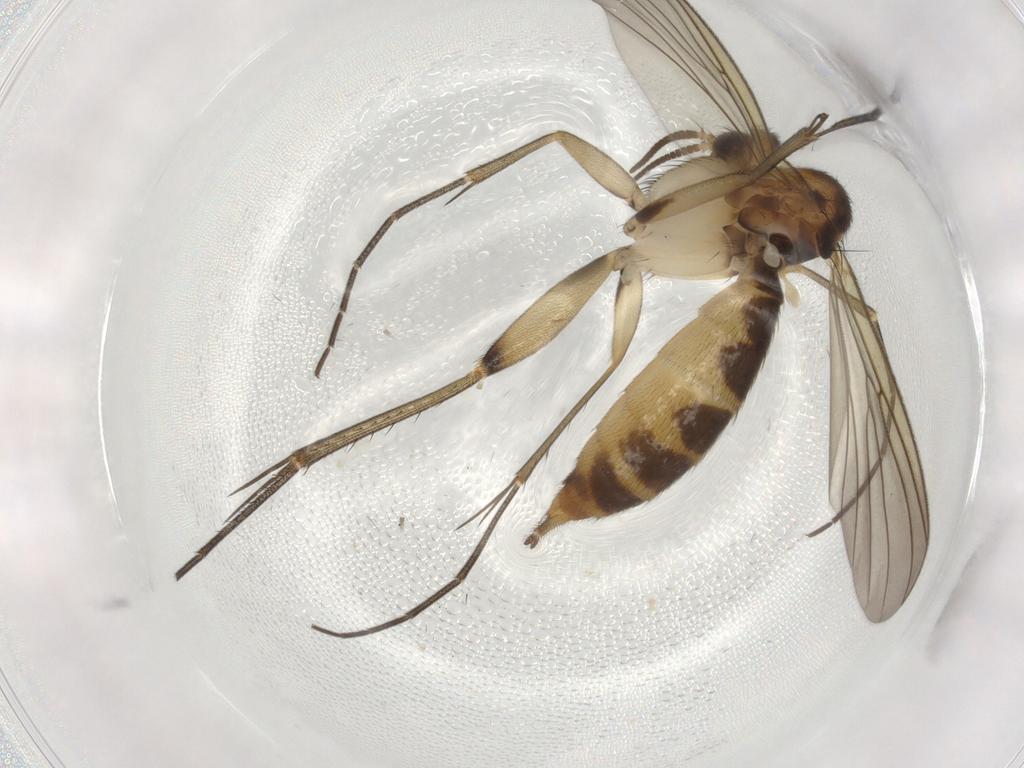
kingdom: Animalia
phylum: Arthropoda
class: Insecta
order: Diptera
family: Mycetophilidae
